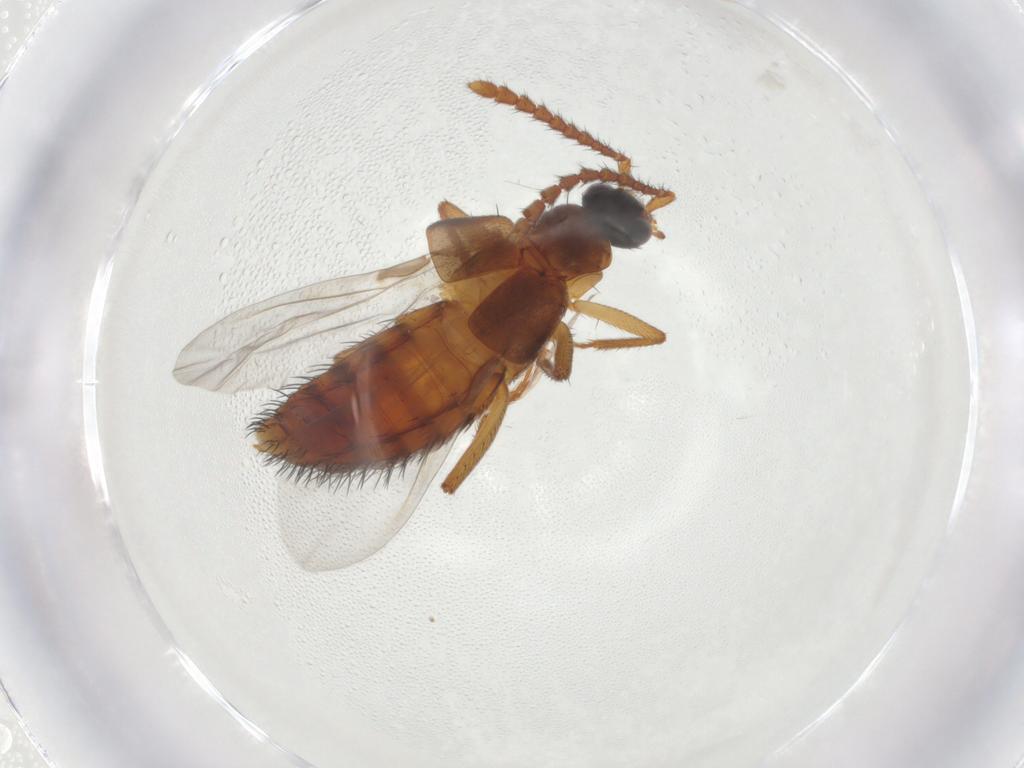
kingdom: Animalia
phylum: Arthropoda
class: Insecta
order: Coleoptera
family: Staphylinidae
